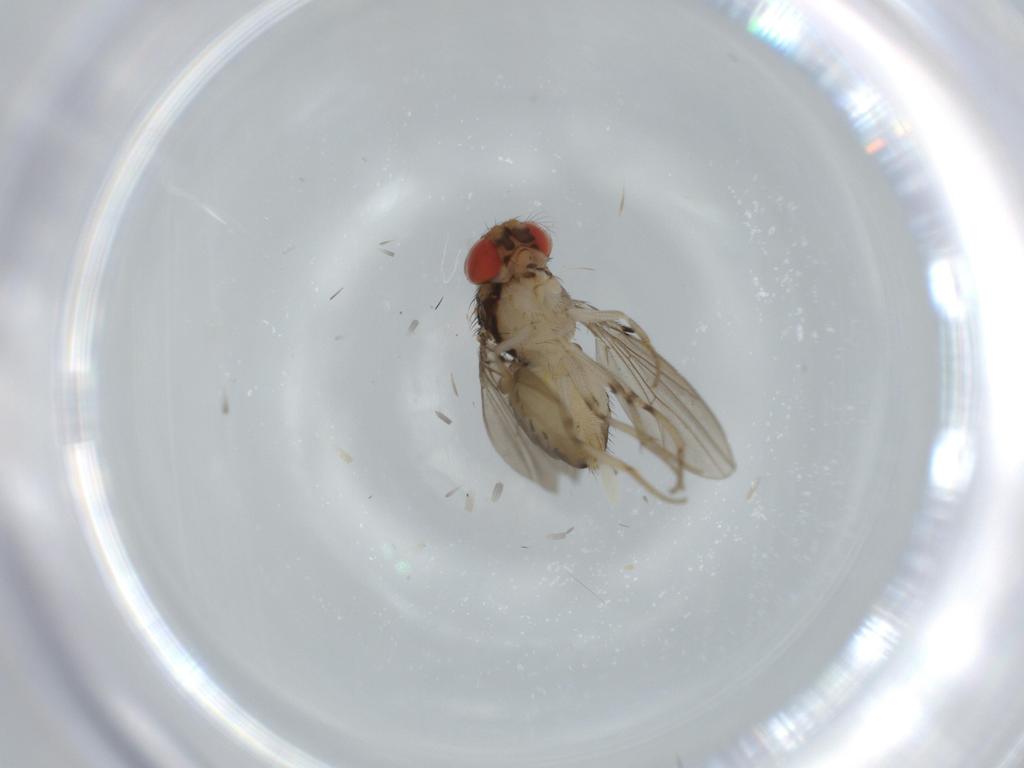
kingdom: Animalia
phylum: Arthropoda
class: Insecta
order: Diptera
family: Drosophilidae
